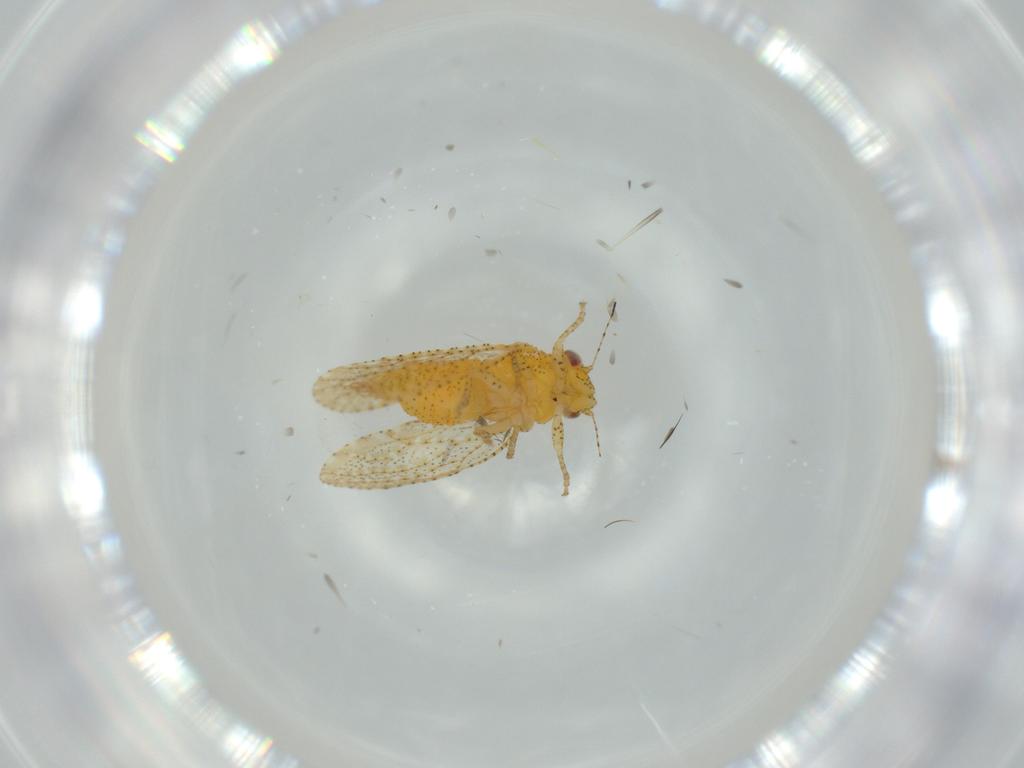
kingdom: Animalia
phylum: Arthropoda
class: Insecta
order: Hemiptera
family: Psyllidae
